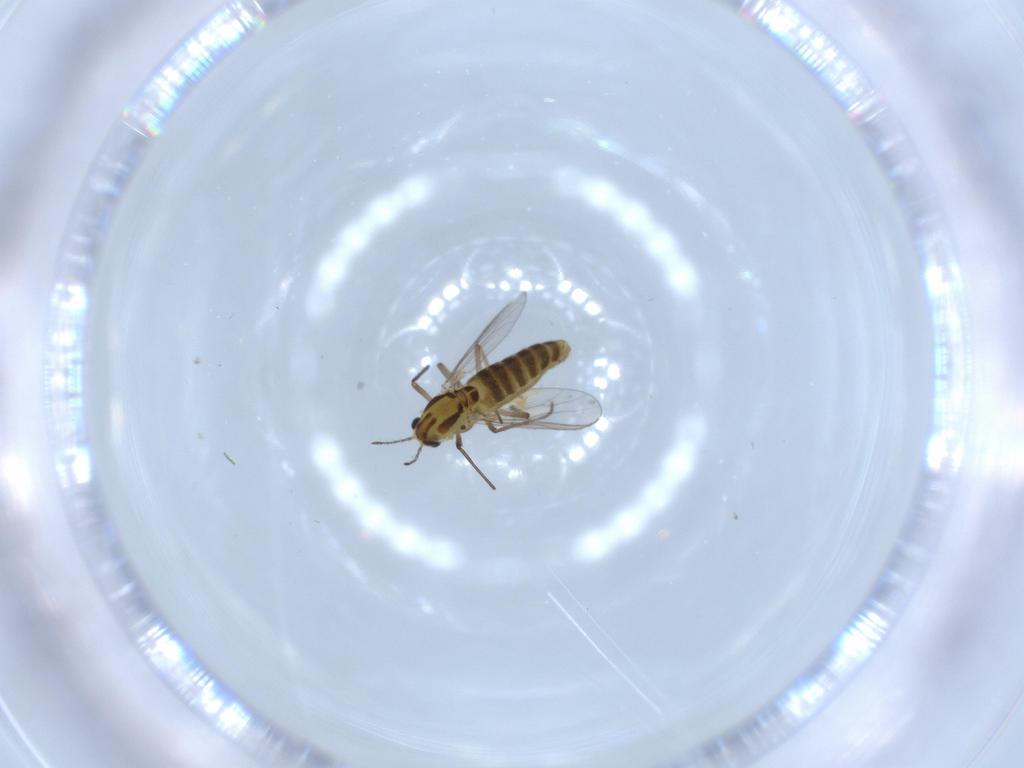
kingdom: Animalia
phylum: Arthropoda
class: Insecta
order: Diptera
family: Chironomidae
